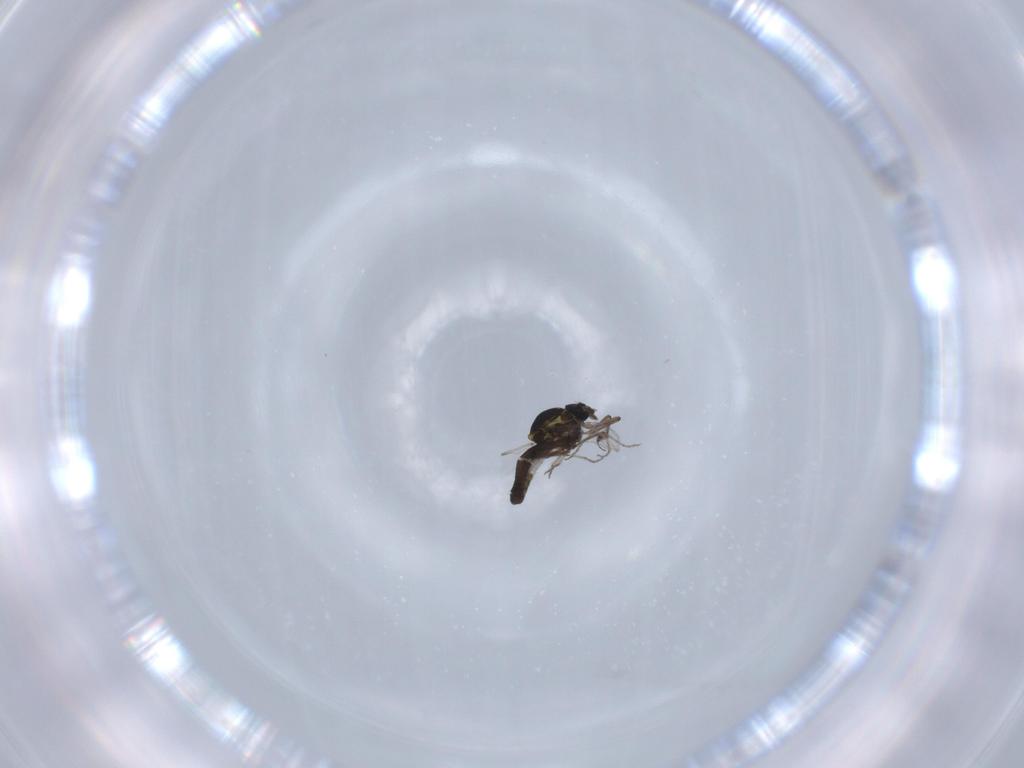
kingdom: Animalia
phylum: Arthropoda
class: Insecta
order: Diptera
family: Ceratopogonidae
